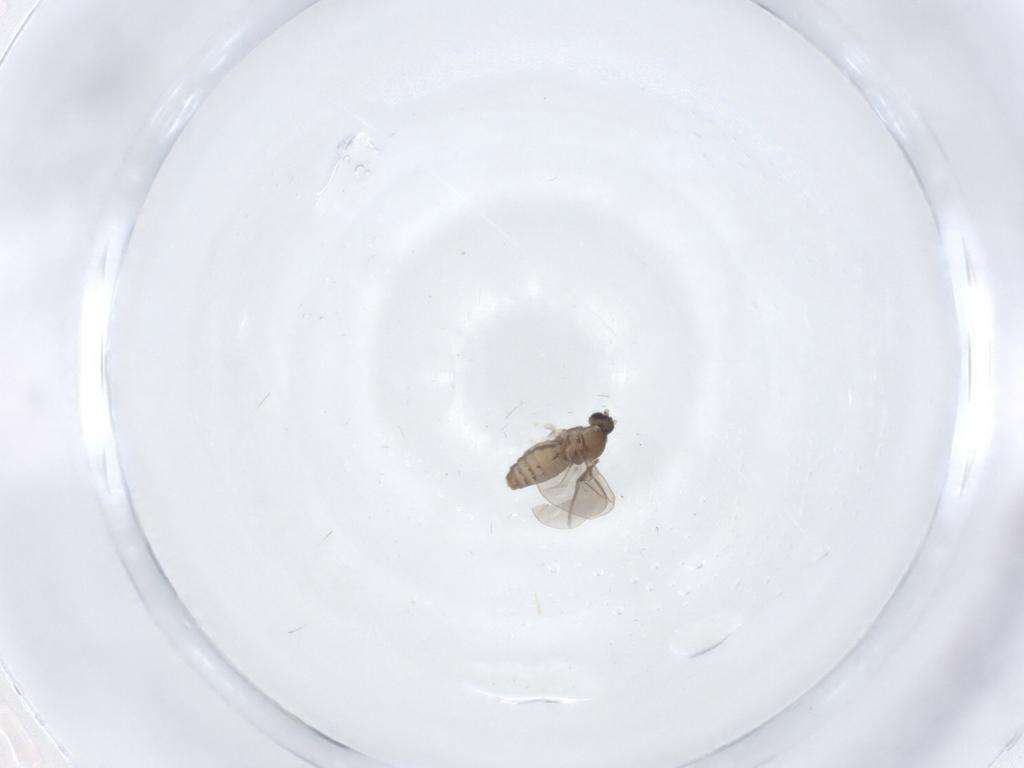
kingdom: Animalia
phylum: Arthropoda
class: Insecta
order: Diptera
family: Cecidomyiidae
